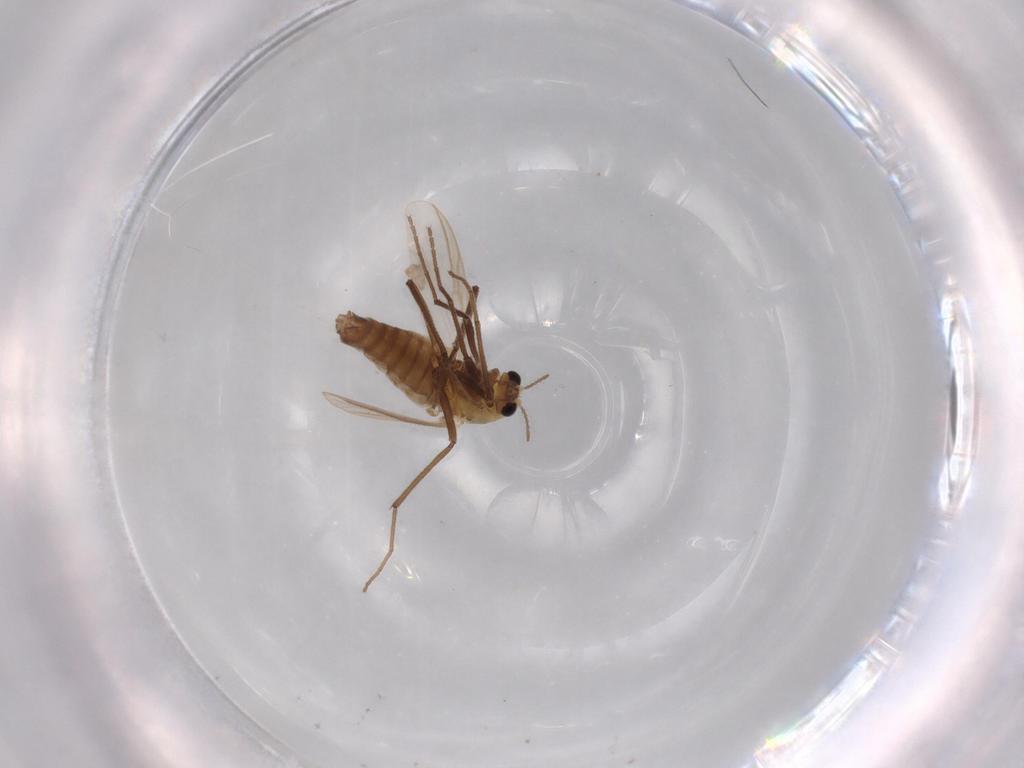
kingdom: Animalia
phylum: Arthropoda
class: Insecta
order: Diptera
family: Chironomidae
